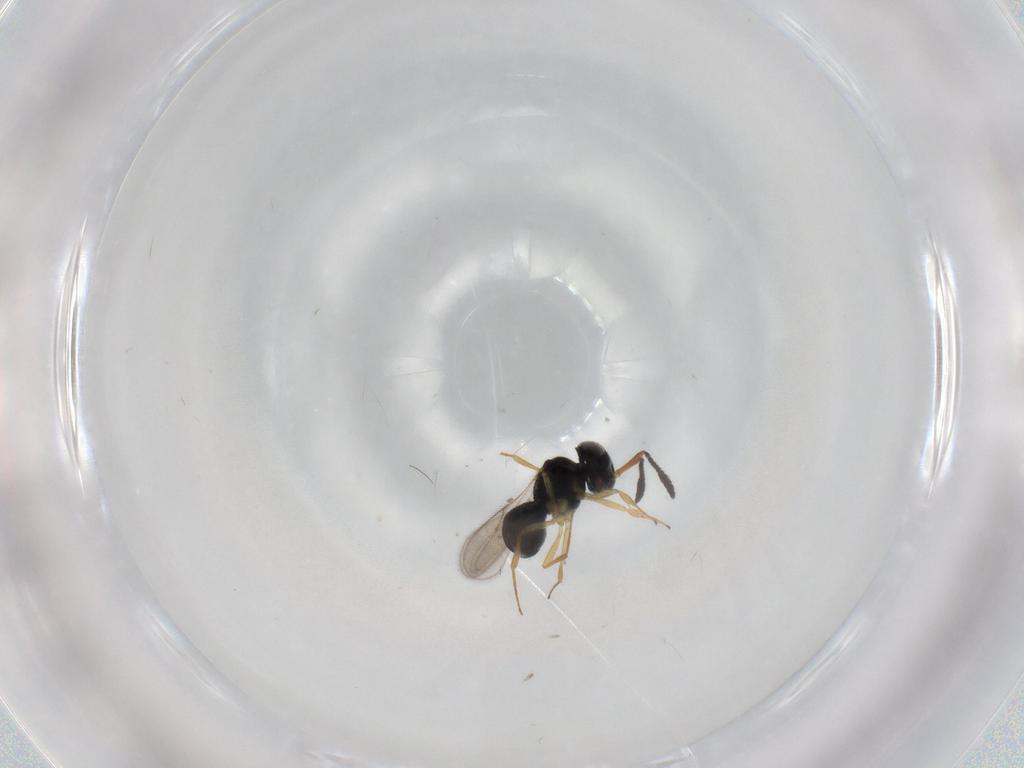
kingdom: Animalia
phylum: Arthropoda
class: Insecta
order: Hymenoptera
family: Scelionidae
